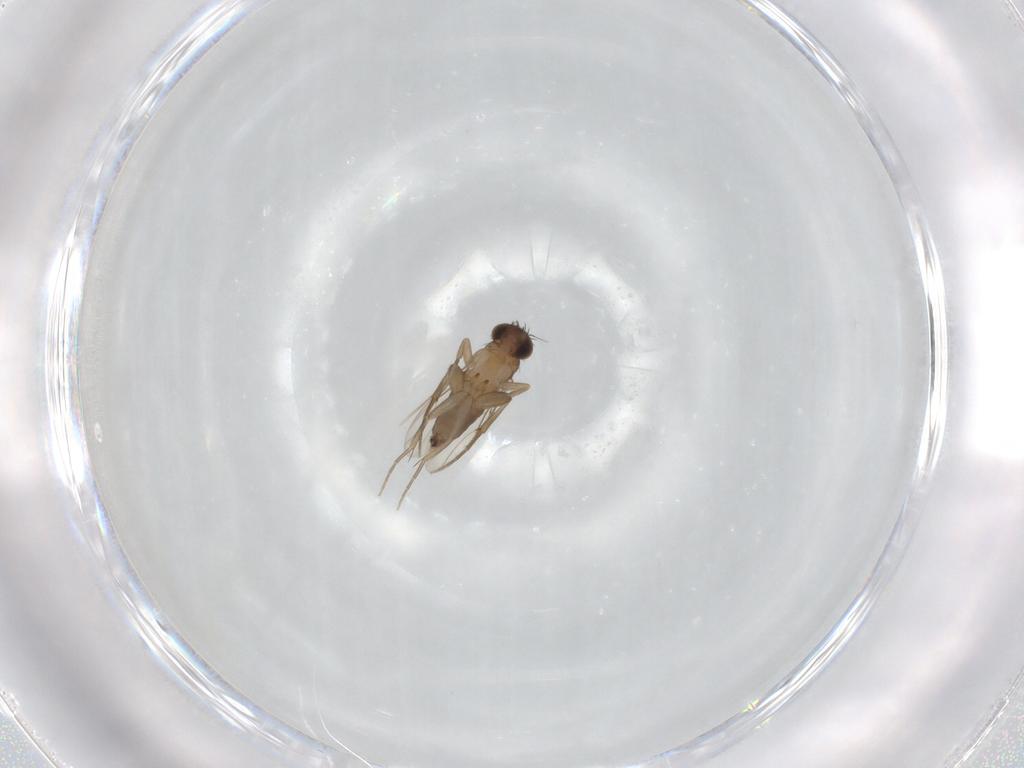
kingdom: Animalia
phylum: Arthropoda
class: Insecta
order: Diptera
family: Phoridae
